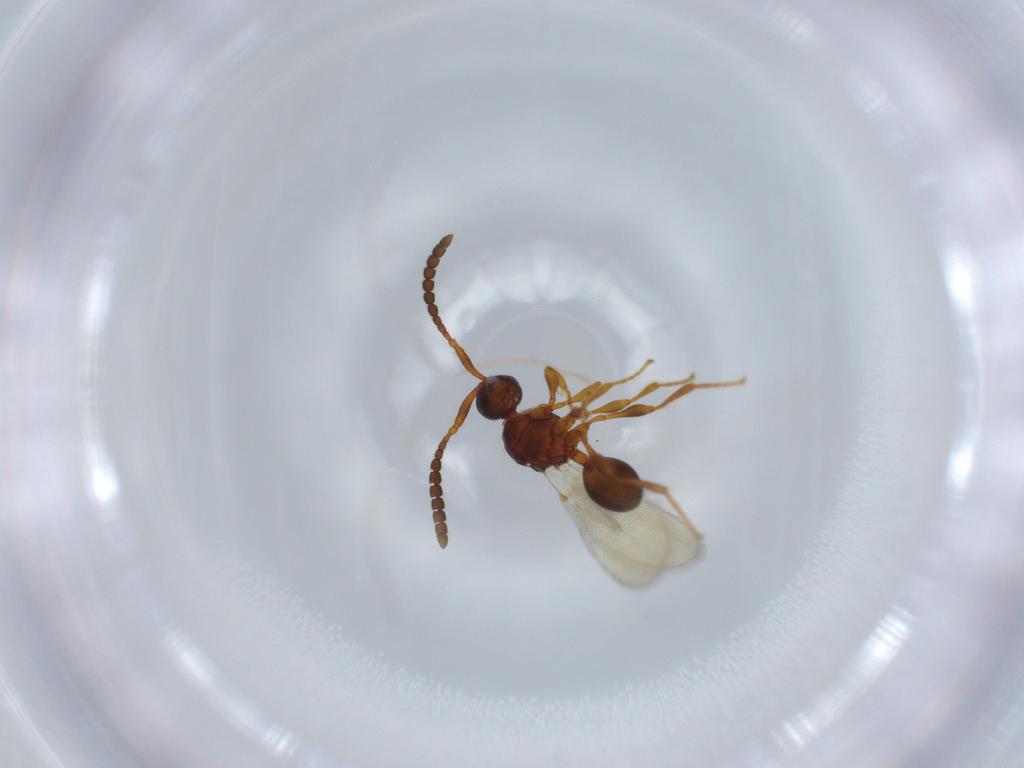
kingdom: Animalia
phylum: Arthropoda
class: Insecta
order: Hymenoptera
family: Diapriidae
